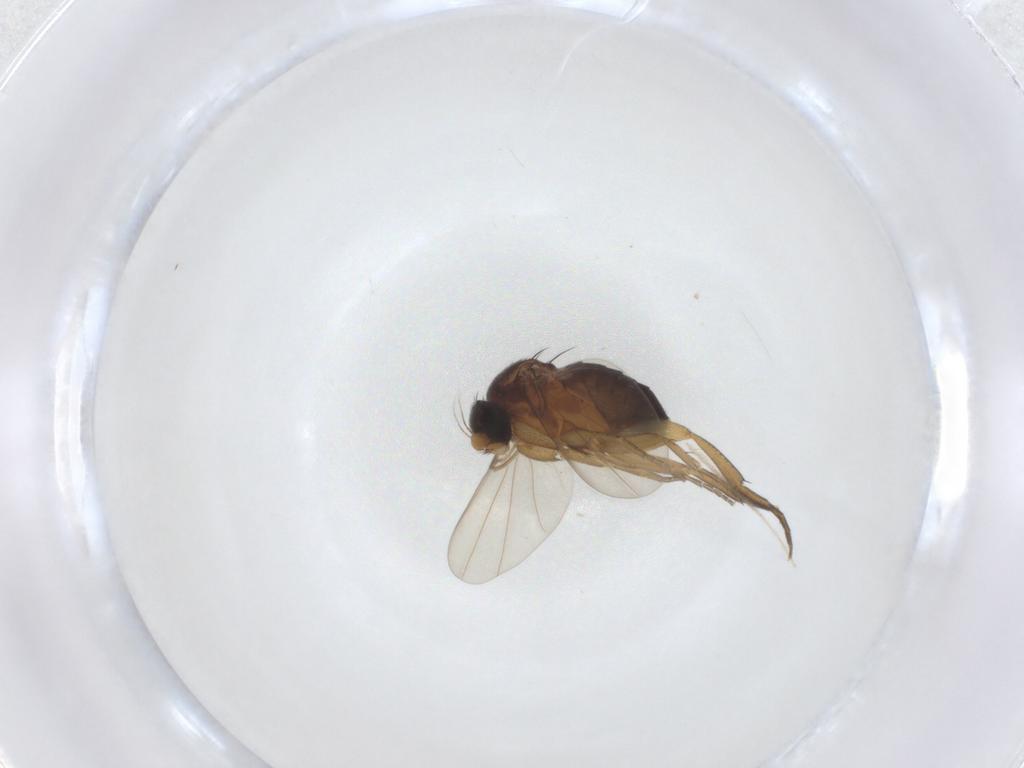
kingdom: Animalia
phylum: Arthropoda
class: Insecta
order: Diptera
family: Phoridae
